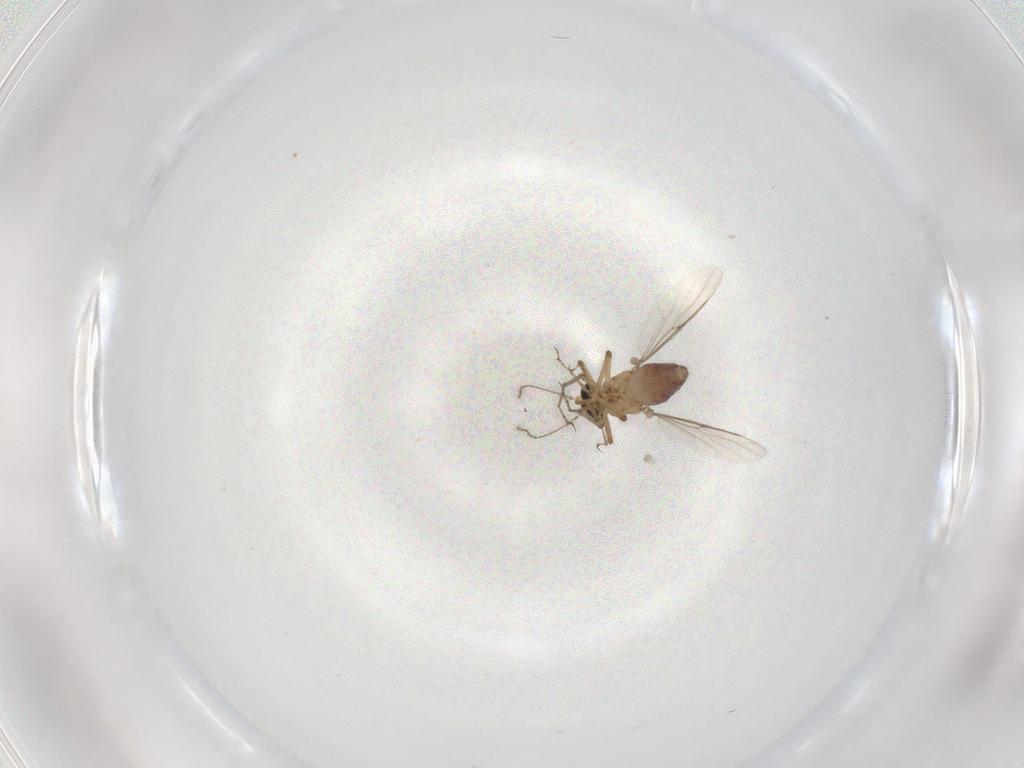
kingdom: Animalia
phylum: Arthropoda
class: Insecta
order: Diptera
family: Ceratopogonidae
